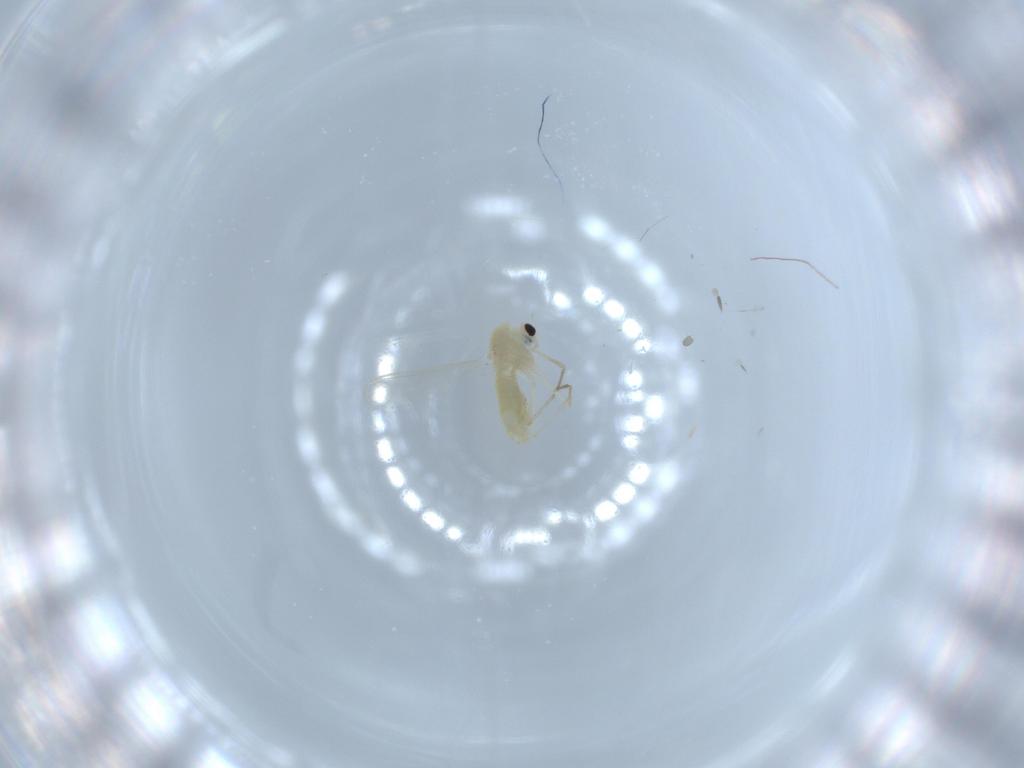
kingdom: Animalia
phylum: Arthropoda
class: Insecta
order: Diptera
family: Chironomidae
